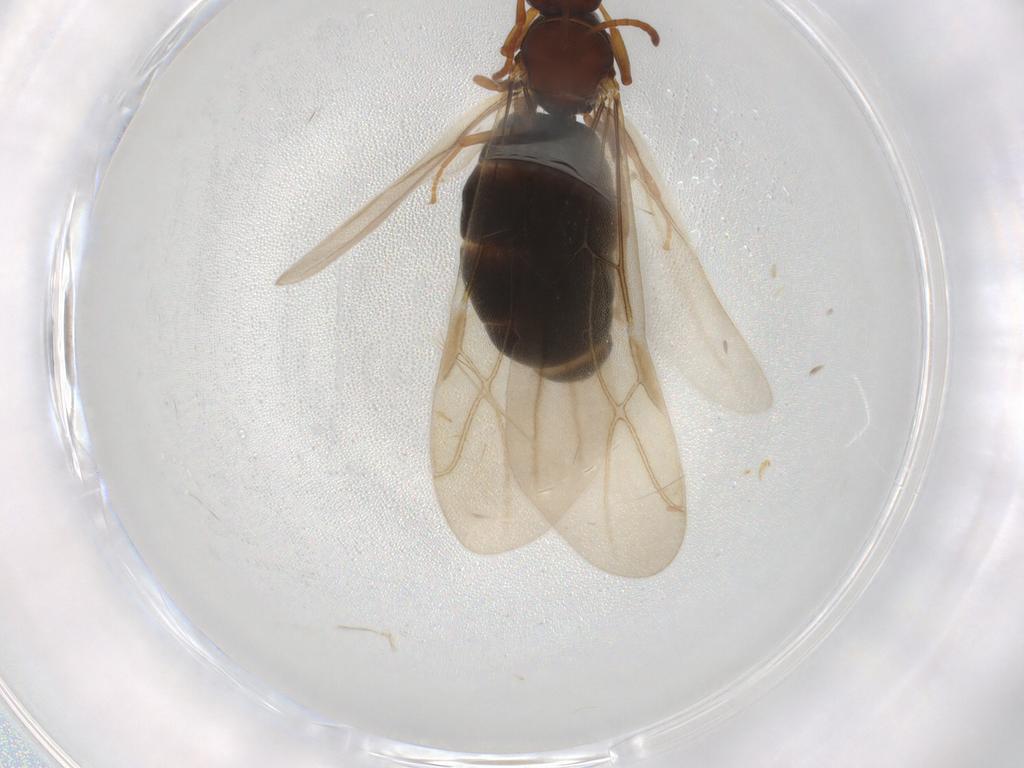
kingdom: Animalia
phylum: Arthropoda
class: Insecta
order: Hymenoptera
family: Formicidae
